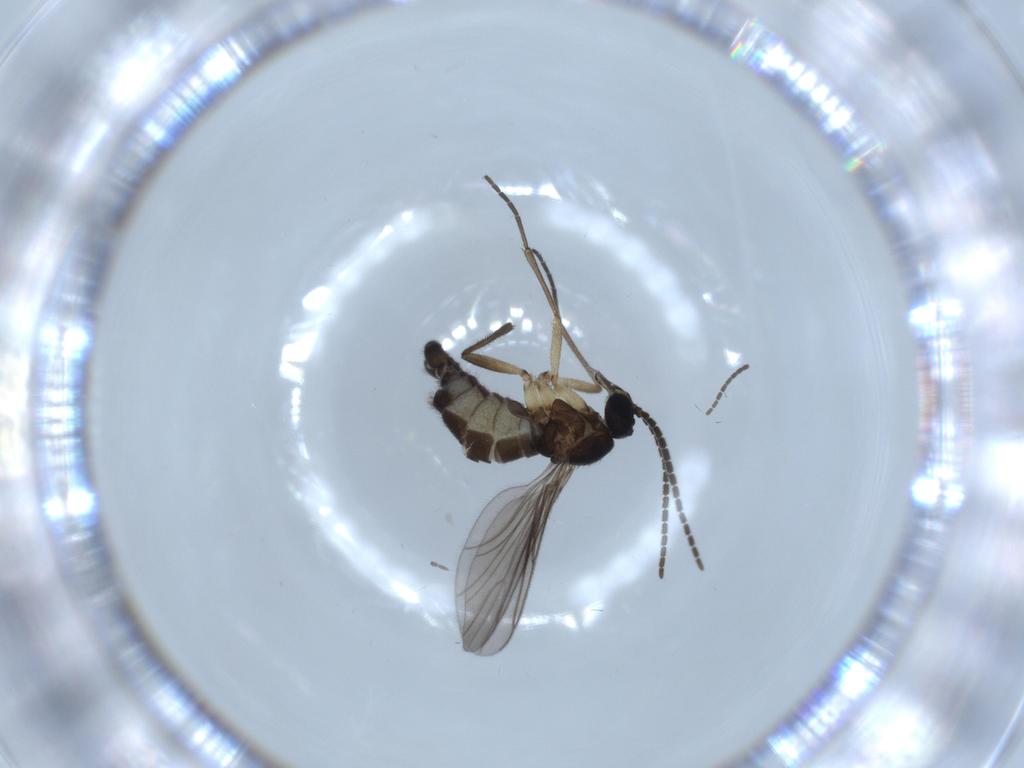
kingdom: Animalia
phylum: Arthropoda
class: Insecta
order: Diptera
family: Sciaridae
